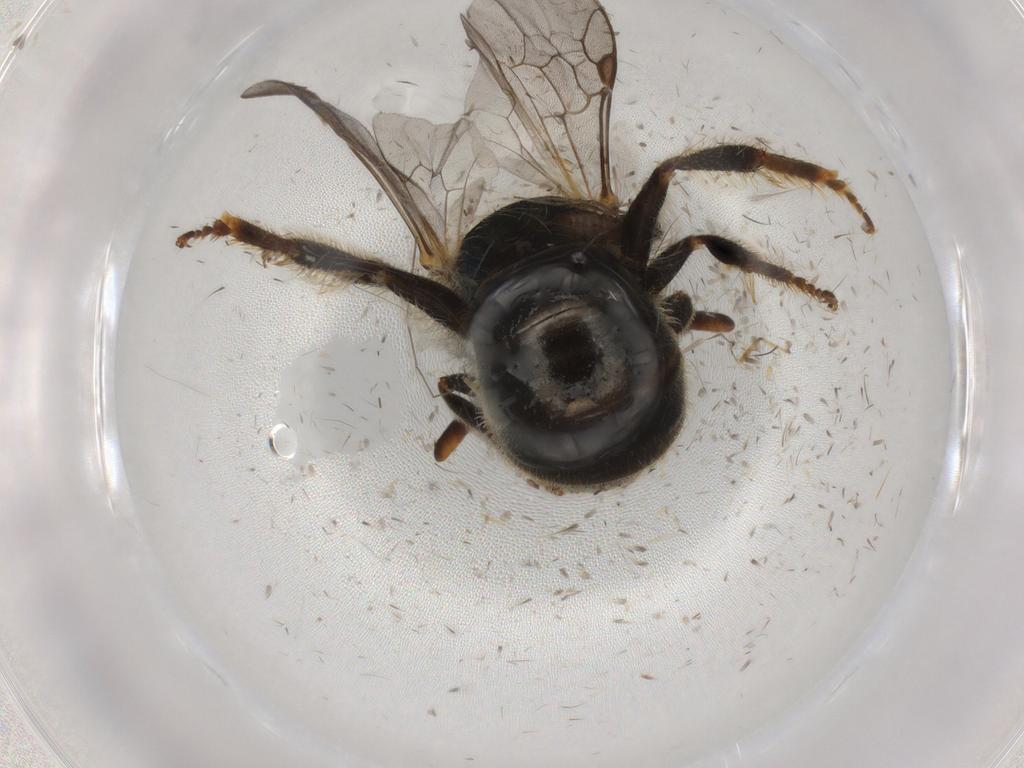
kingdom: Animalia
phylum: Arthropoda
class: Insecta
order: Hymenoptera
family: Halictidae
